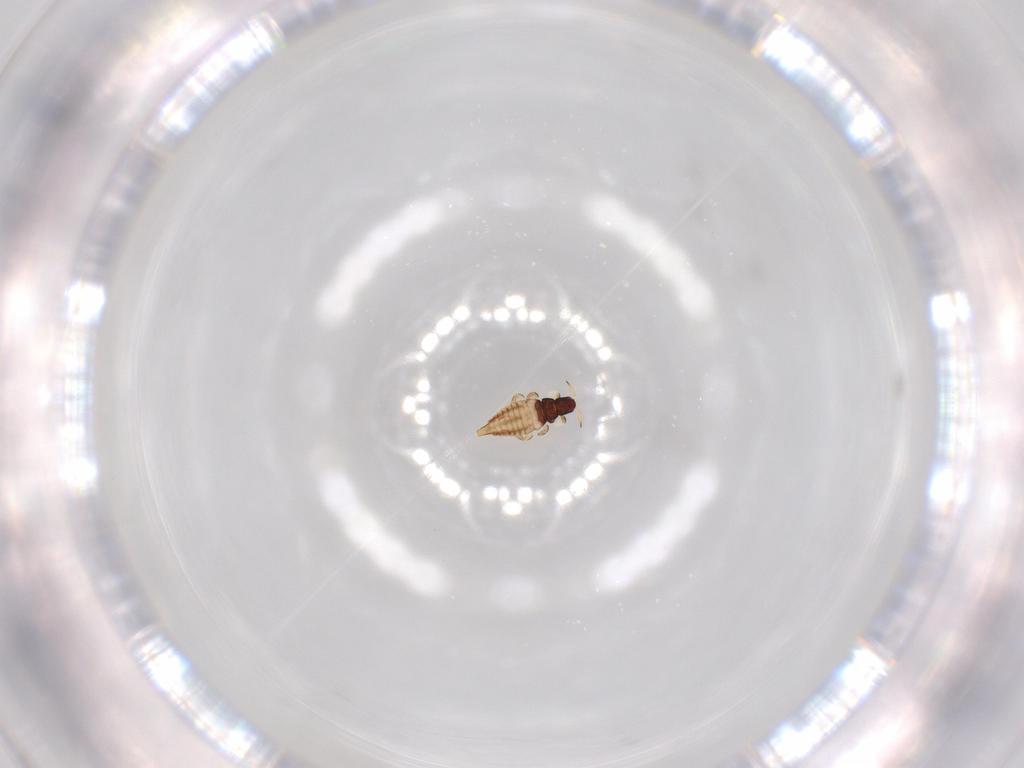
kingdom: Animalia
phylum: Arthropoda
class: Insecta
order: Thysanoptera
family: Phlaeothripidae
